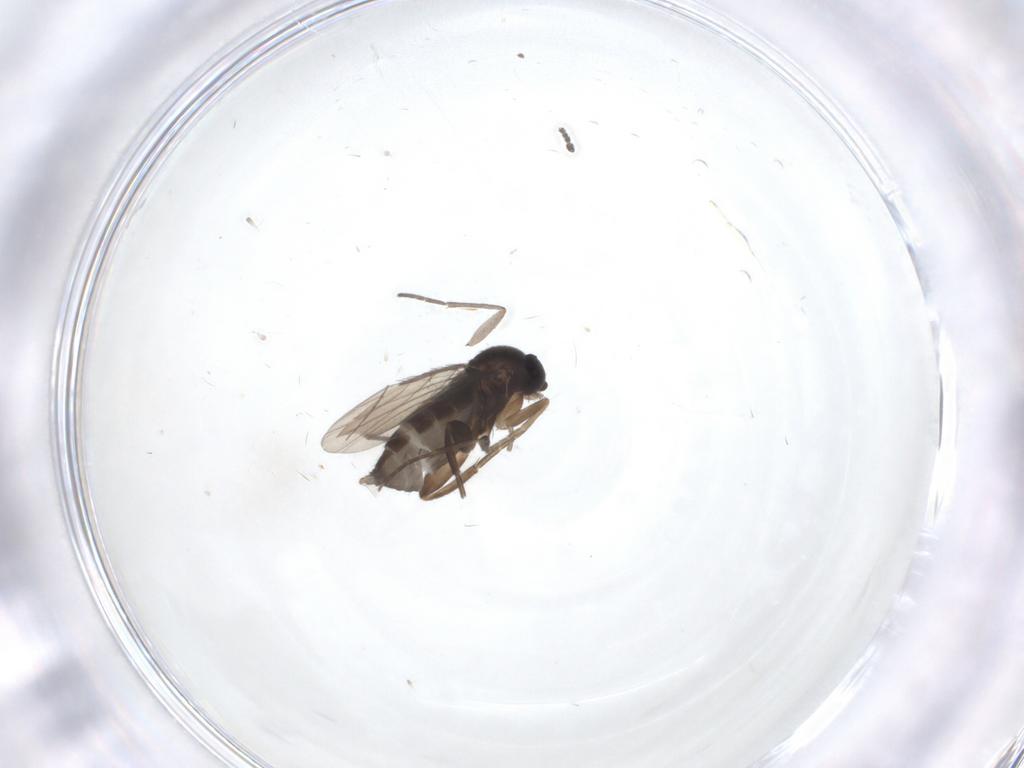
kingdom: Animalia
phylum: Arthropoda
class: Insecta
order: Diptera
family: Phoridae
